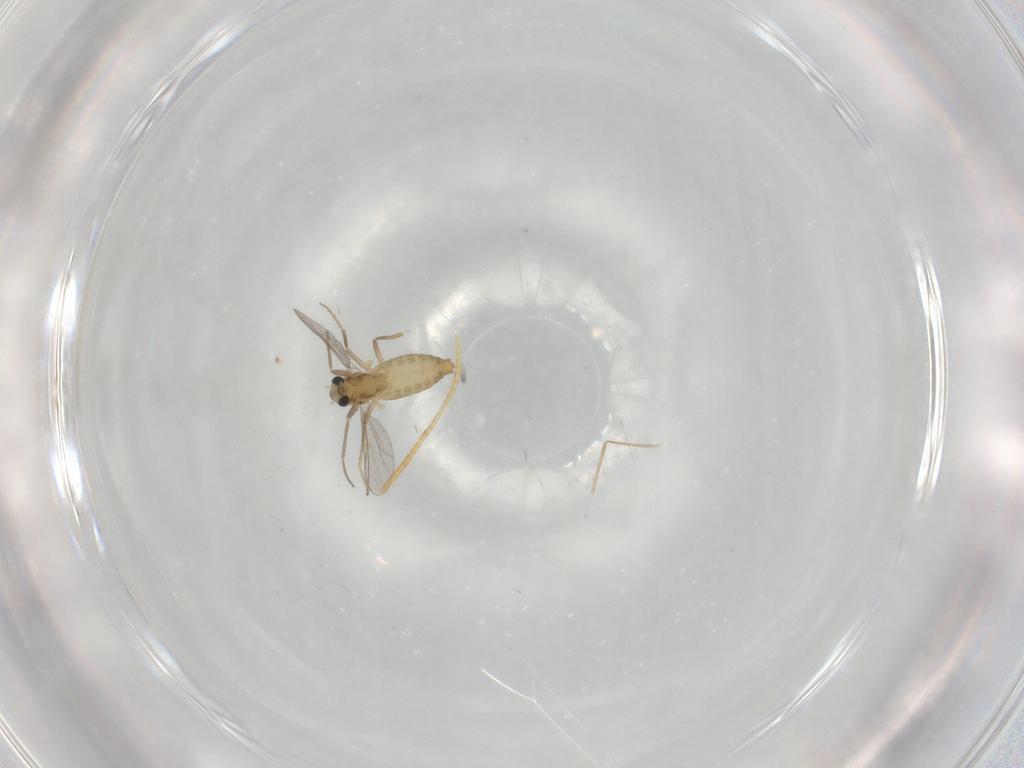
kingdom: Animalia
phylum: Arthropoda
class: Insecta
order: Diptera
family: Chironomidae
